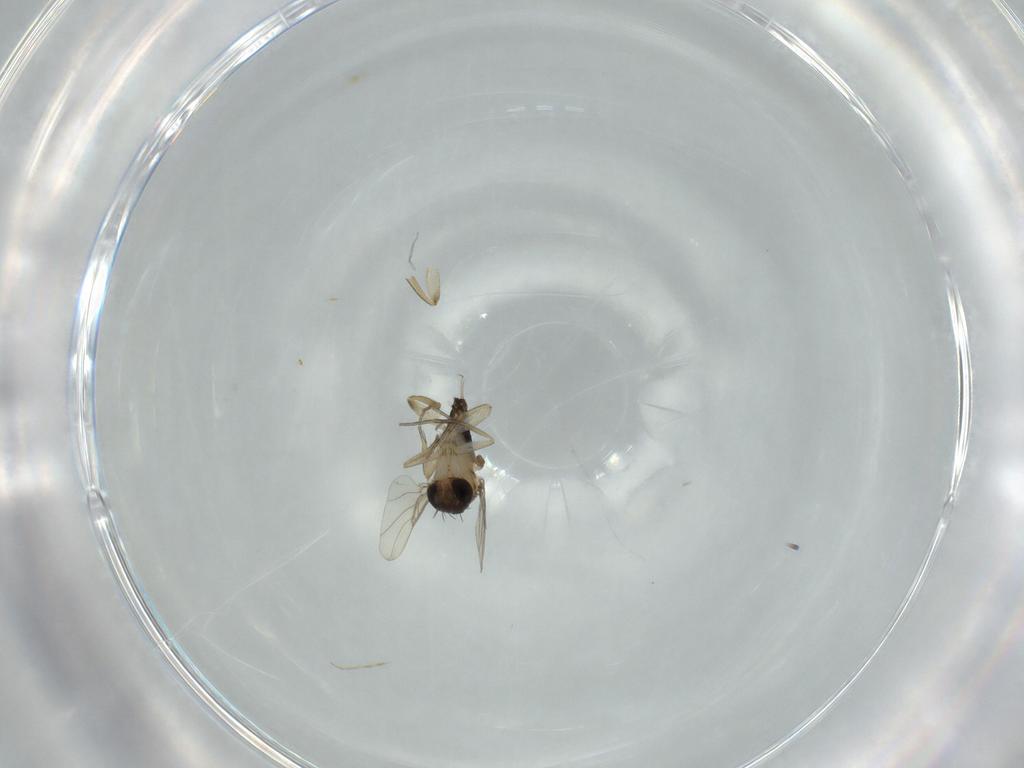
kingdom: Animalia
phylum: Arthropoda
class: Insecta
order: Diptera
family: Phoridae
